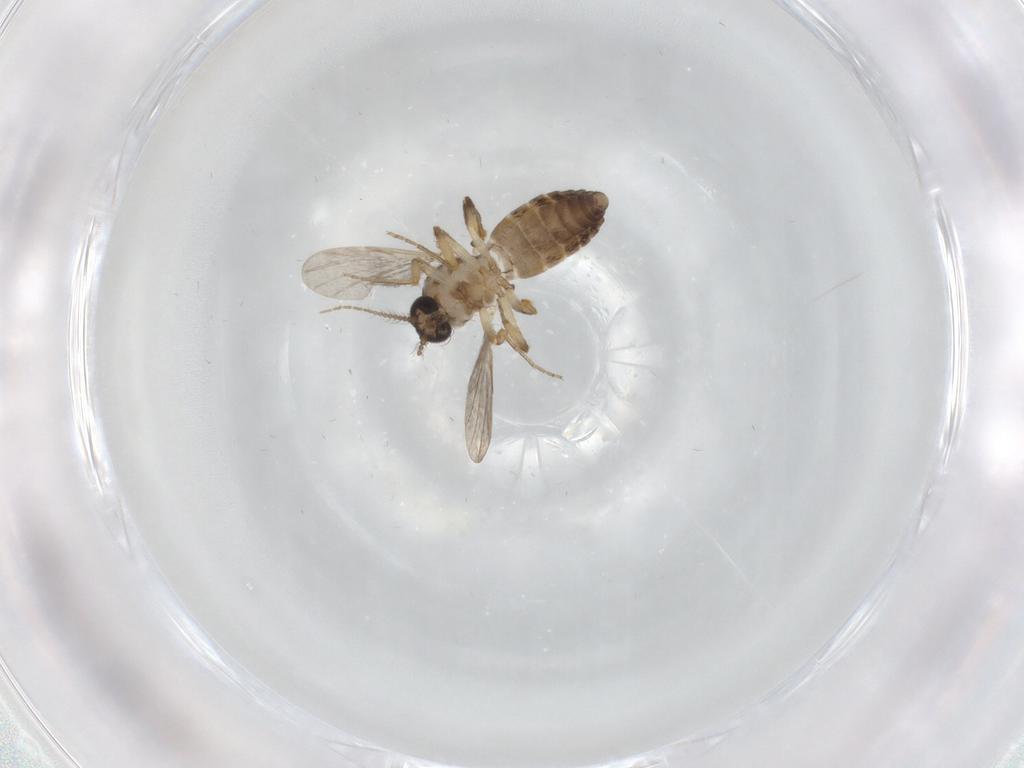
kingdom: Animalia
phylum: Arthropoda
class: Insecta
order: Diptera
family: Ceratopogonidae
